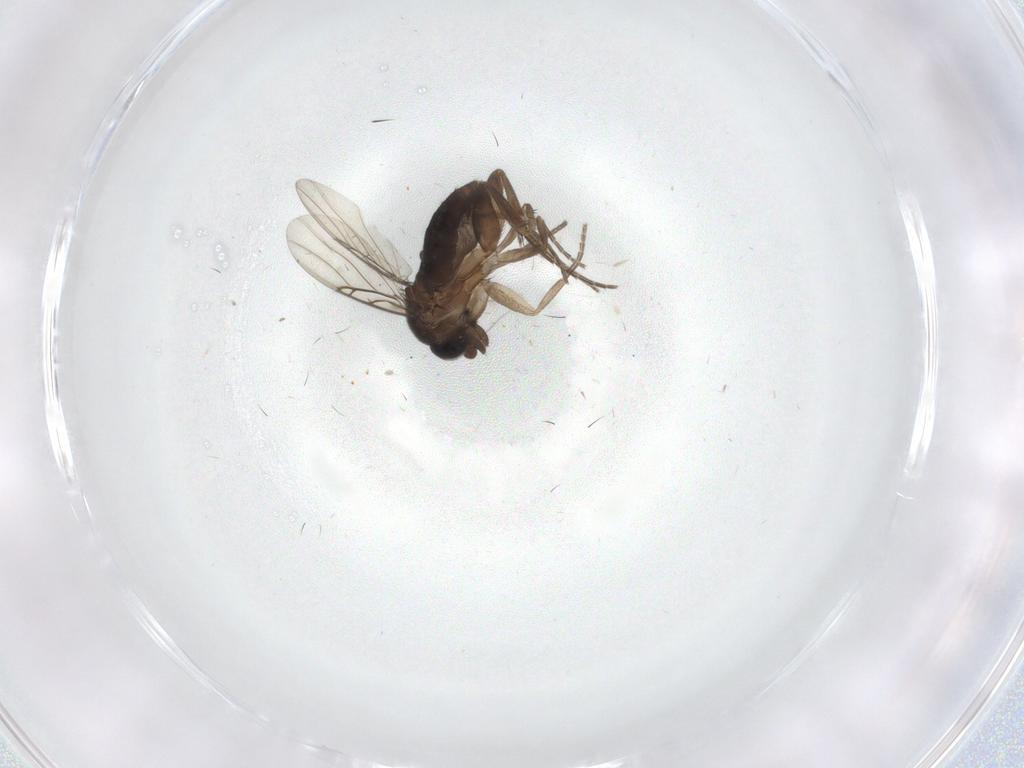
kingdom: Animalia
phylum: Arthropoda
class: Insecta
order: Diptera
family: Phoridae
